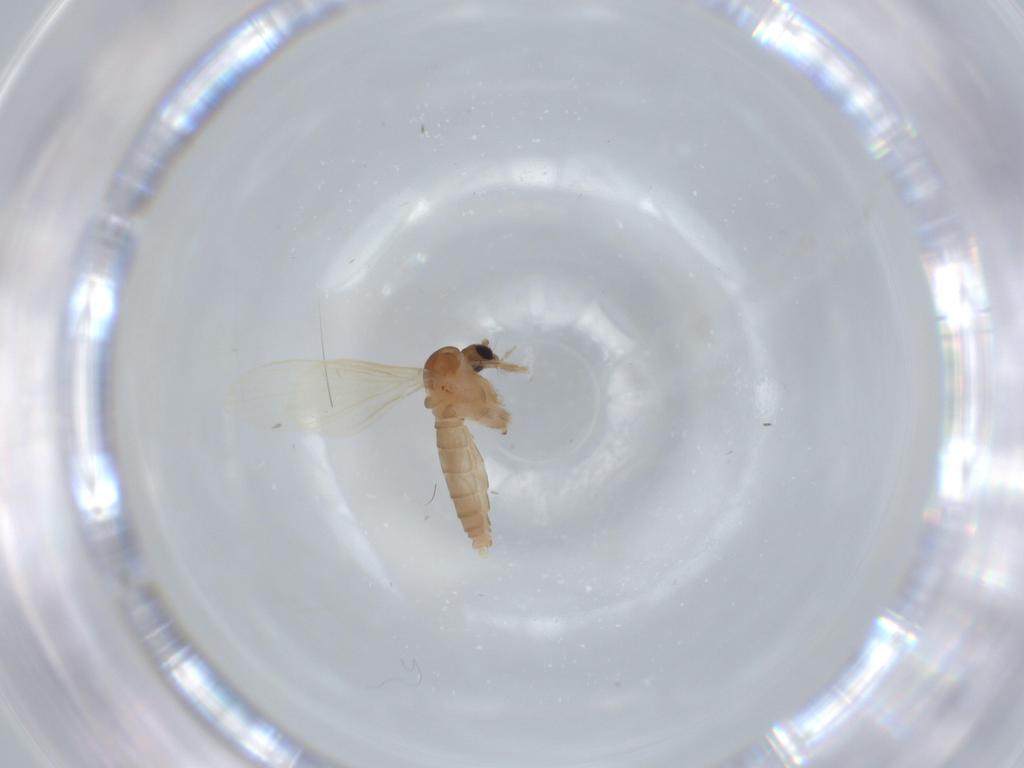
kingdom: Animalia
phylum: Arthropoda
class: Insecta
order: Diptera
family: Psychodidae
